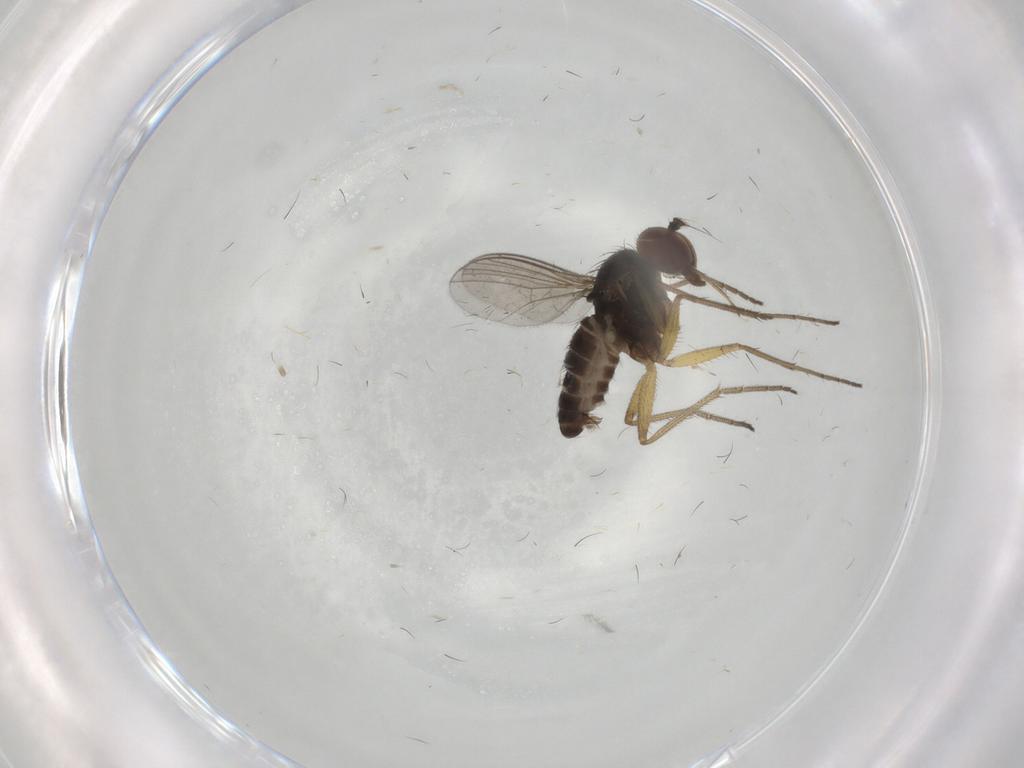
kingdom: Animalia
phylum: Arthropoda
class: Insecta
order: Diptera
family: Dolichopodidae
